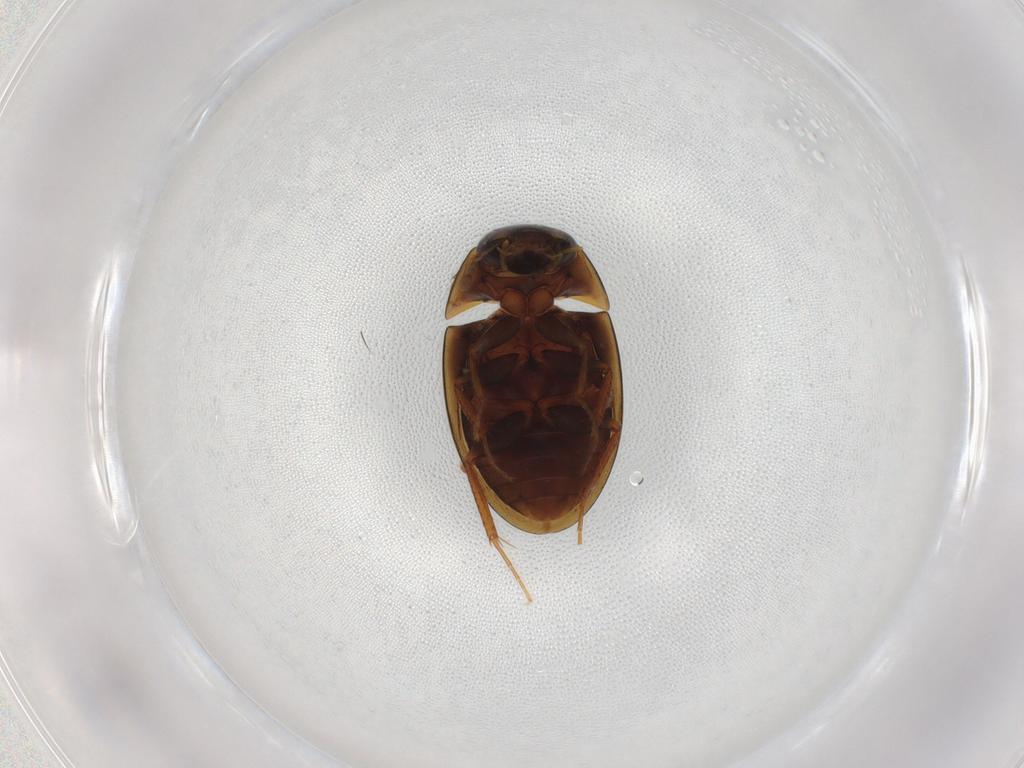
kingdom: Animalia
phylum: Arthropoda
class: Insecta
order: Coleoptera
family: Hydrophilidae
